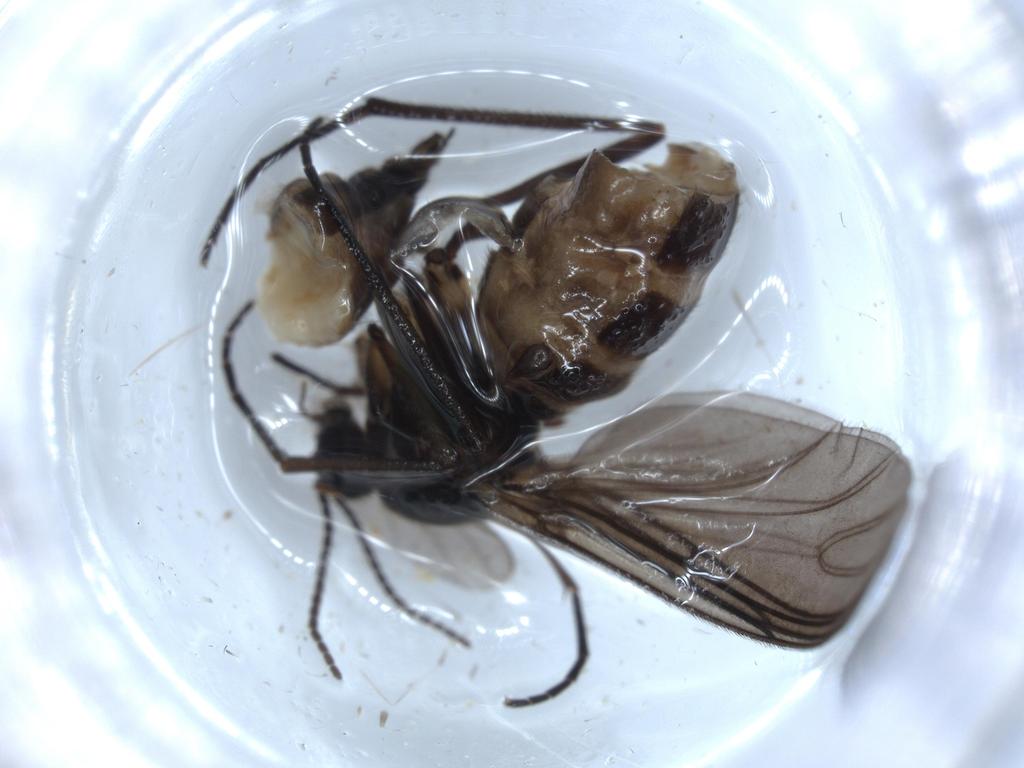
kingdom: Animalia
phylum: Arthropoda
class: Insecta
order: Diptera
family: Sciaridae
